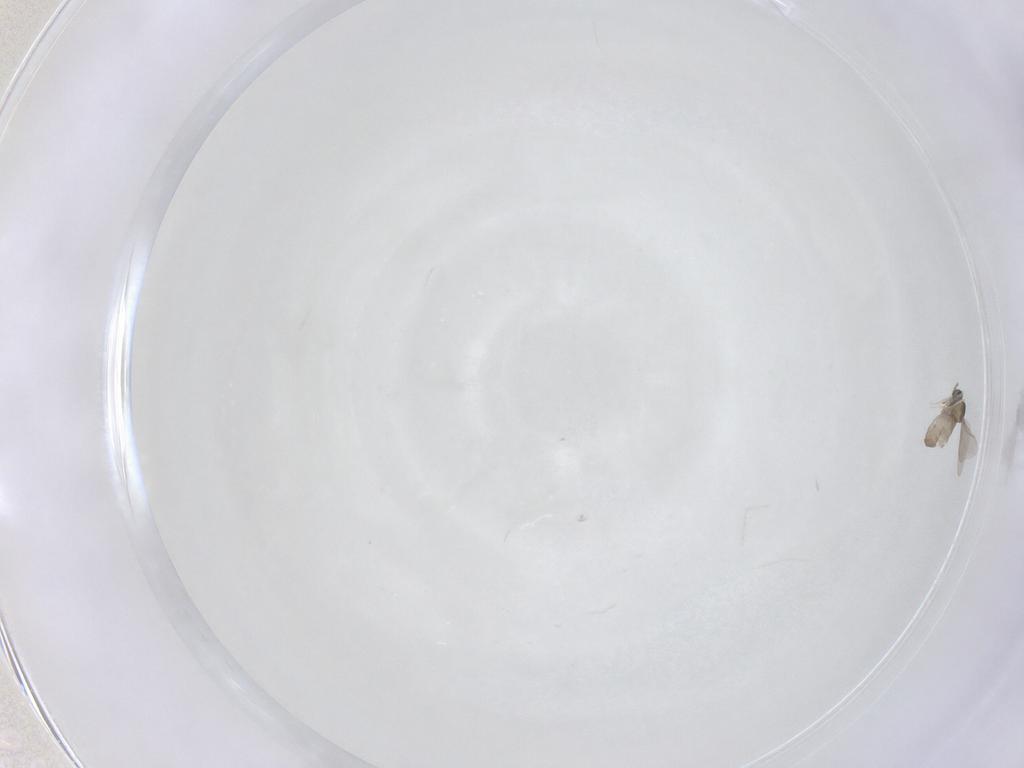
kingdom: Animalia
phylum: Arthropoda
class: Insecta
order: Diptera
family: Cecidomyiidae
